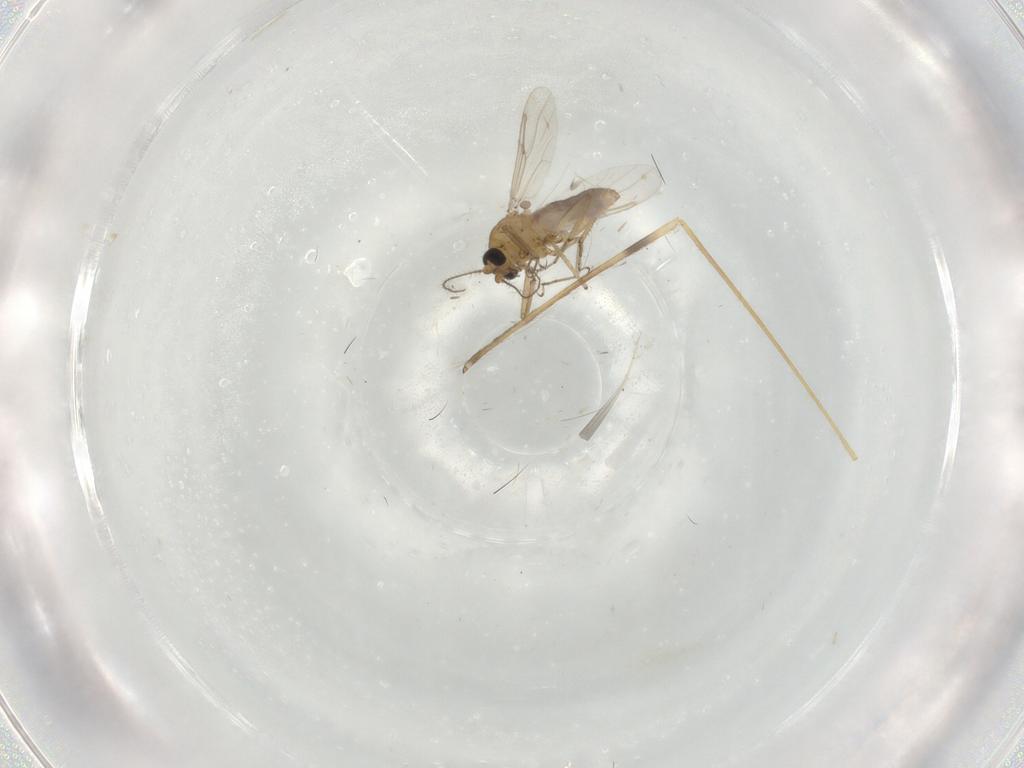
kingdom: Animalia
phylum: Arthropoda
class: Insecta
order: Diptera
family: Limoniidae
